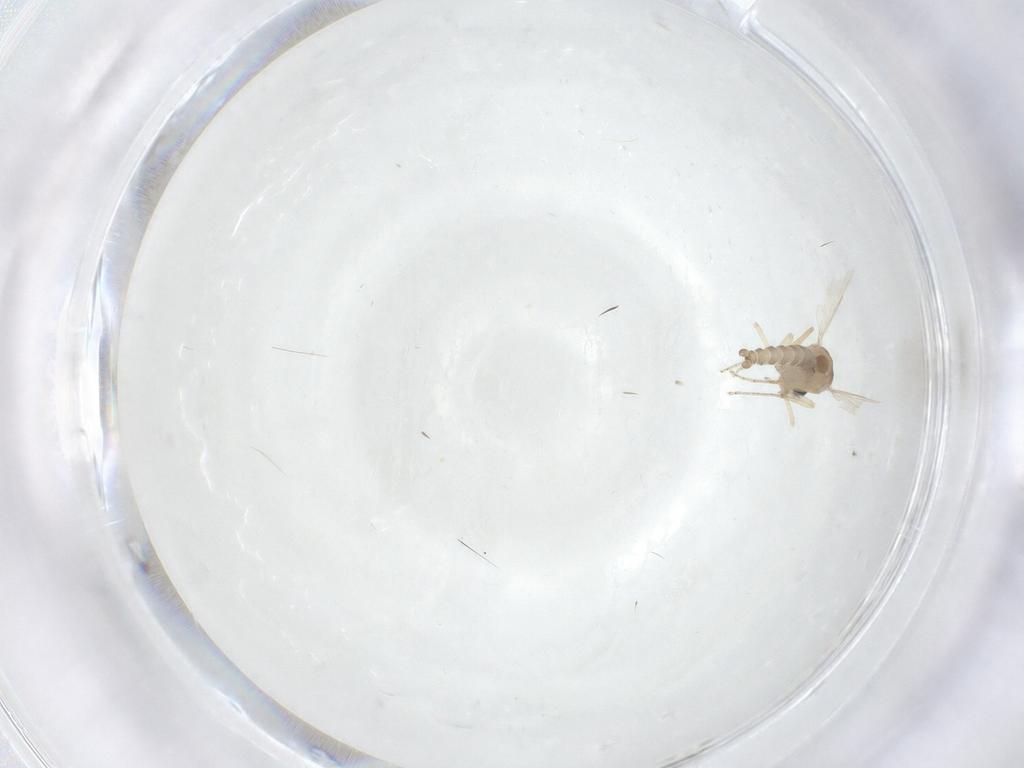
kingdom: Animalia
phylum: Arthropoda
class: Insecta
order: Diptera
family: Ceratopogonidae
